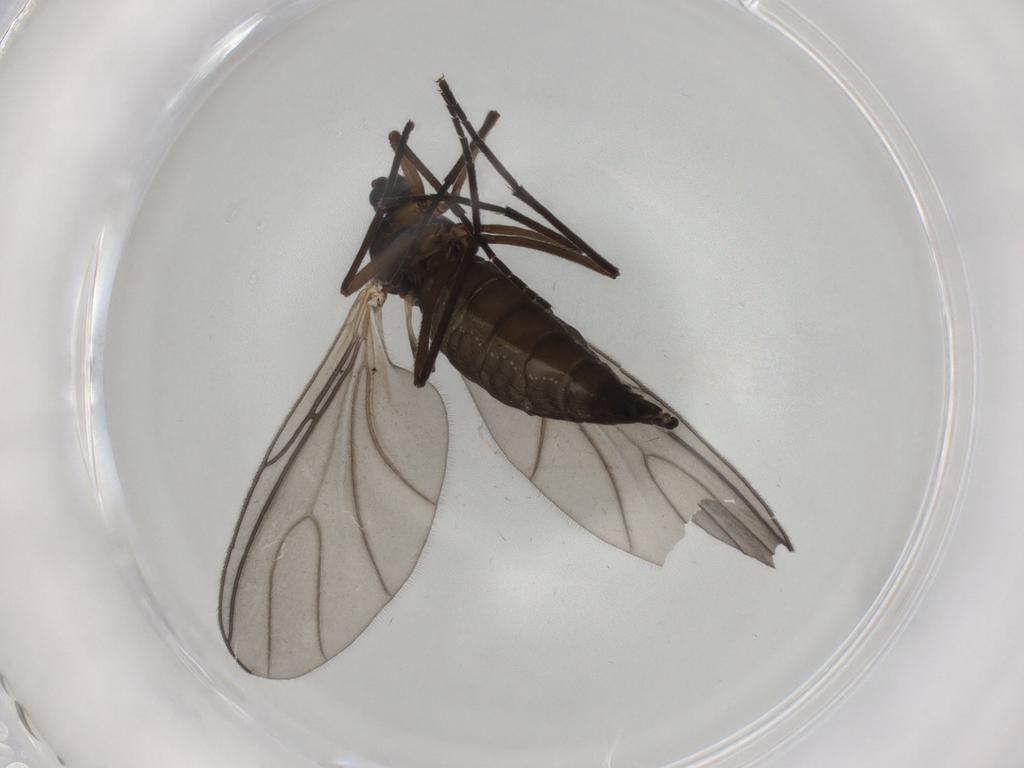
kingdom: Animalia
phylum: Arthropoda
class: Insecta
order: Diptera
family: Sciaridae
